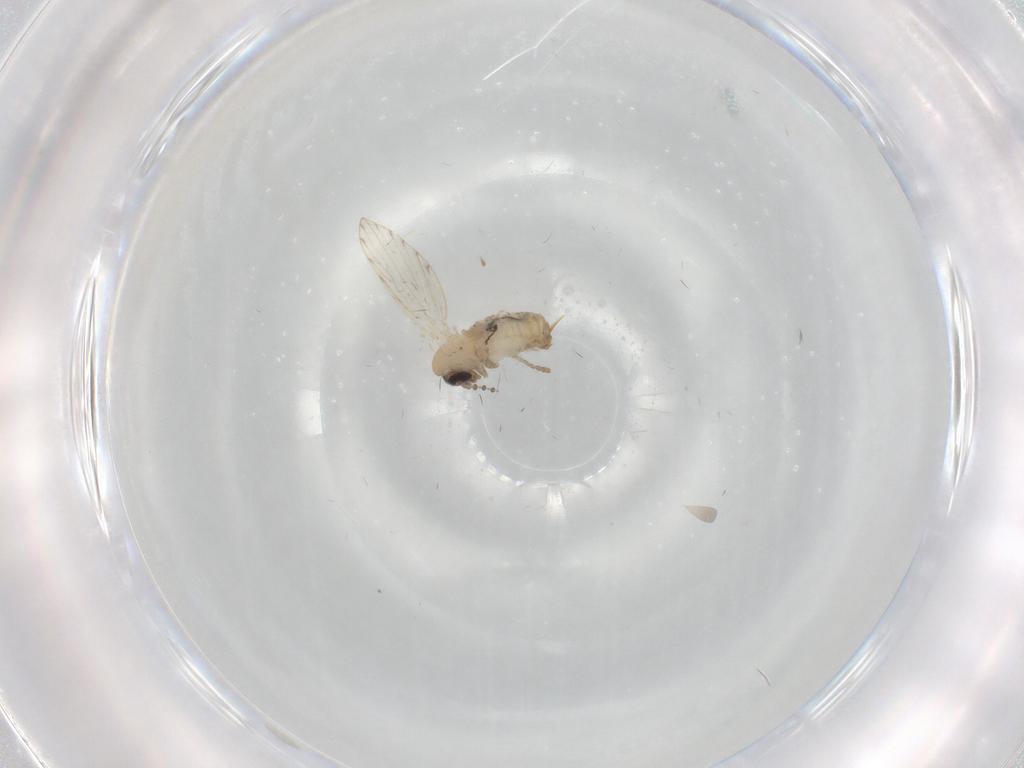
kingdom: Animalia
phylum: Arthropoda
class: Insecta
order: Diptera
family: Psychodidae
